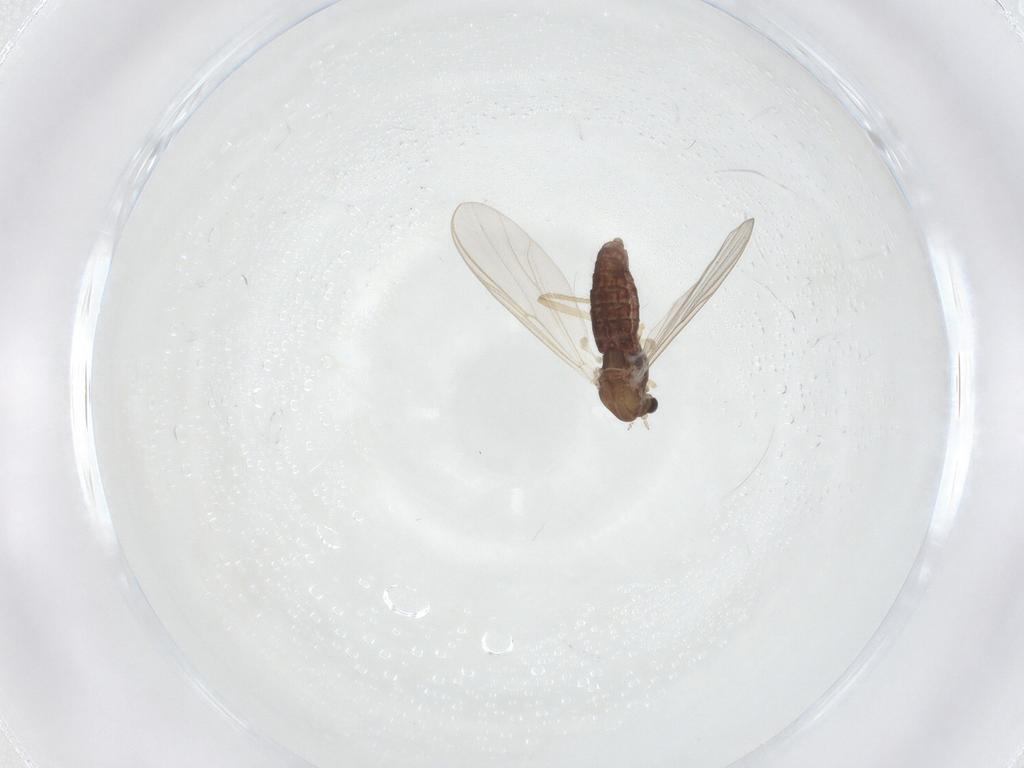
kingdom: Animalia
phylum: Arthropoda
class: Insecta
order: Diptera
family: Chironomidae
